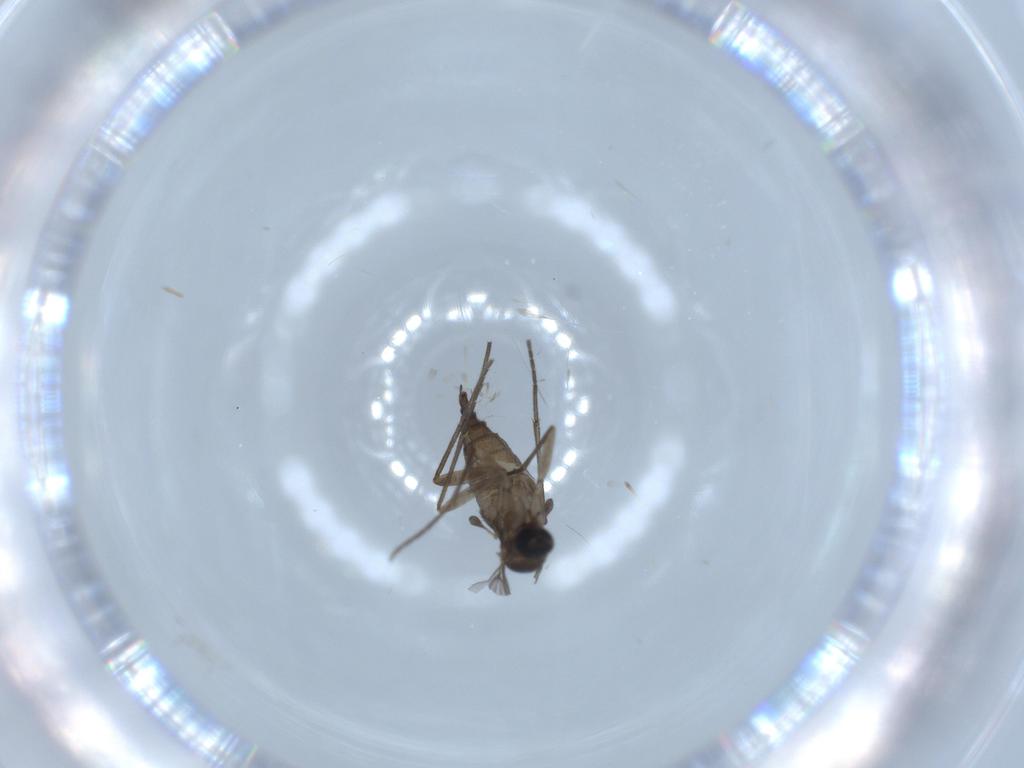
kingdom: Animalia
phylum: Arthropoda
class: Insecta
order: Diptera
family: Sciaridae
